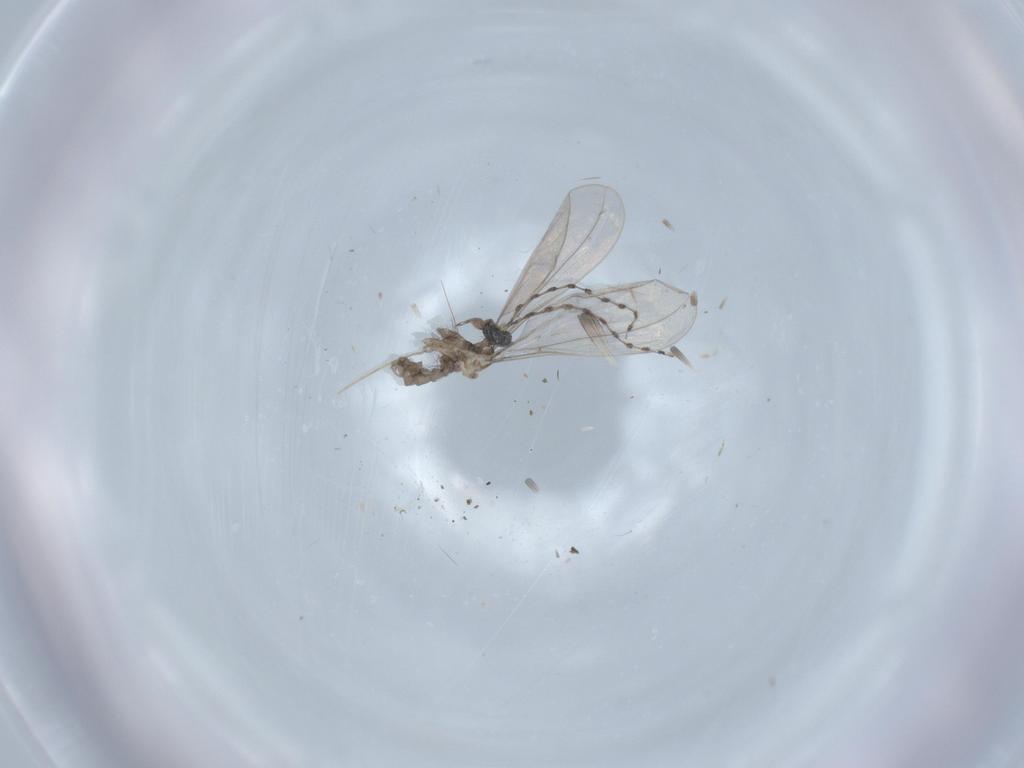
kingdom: Animalia
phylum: Arthropoda
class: Insecta
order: Diptera
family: Cecidomyiidae
